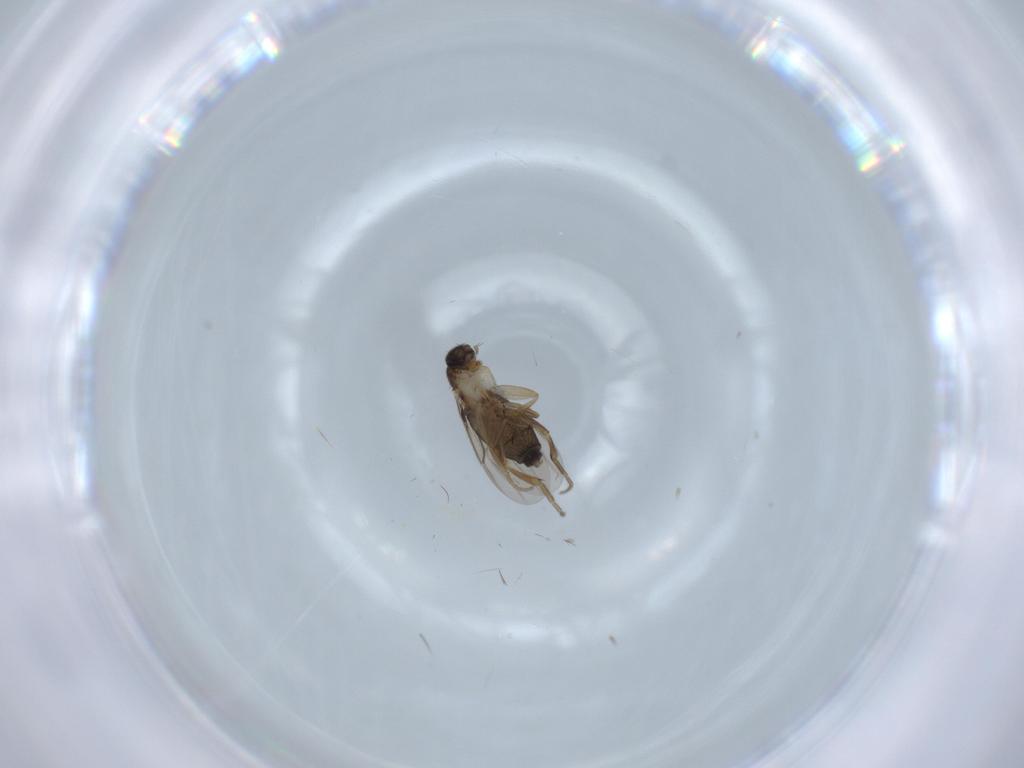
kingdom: Animalia
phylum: Arthropoda
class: Insecta
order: Diptera
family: Phoridae
